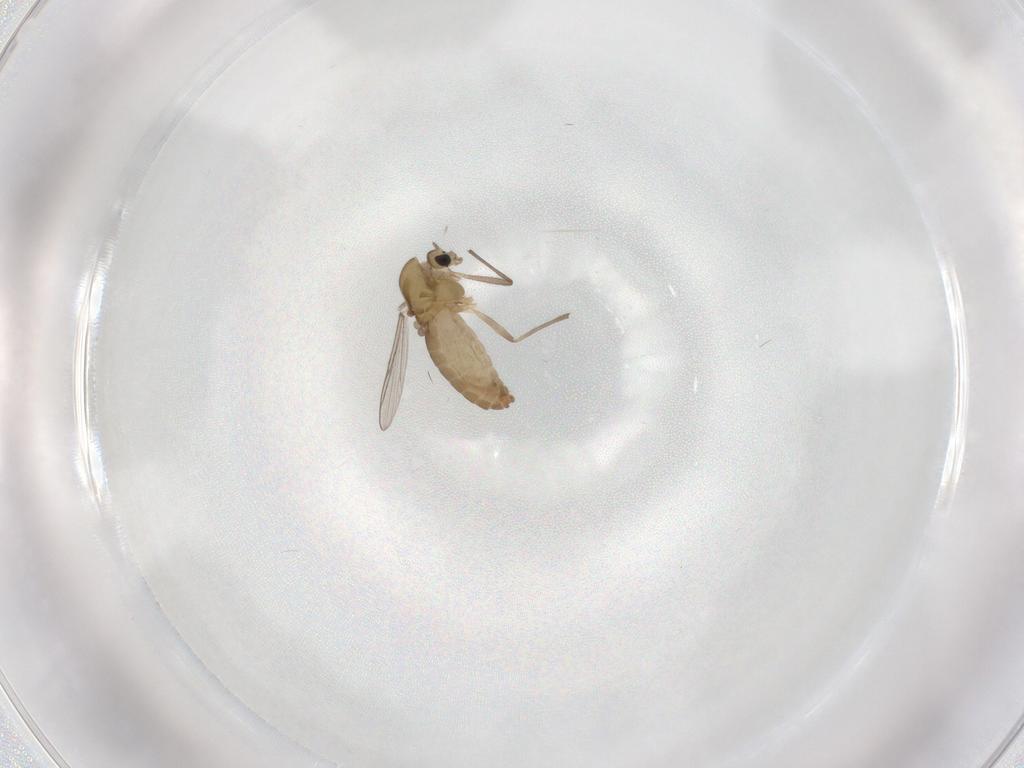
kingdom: Animalia
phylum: Arthropoda
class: Insecta
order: Diptera
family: Chironomidae
